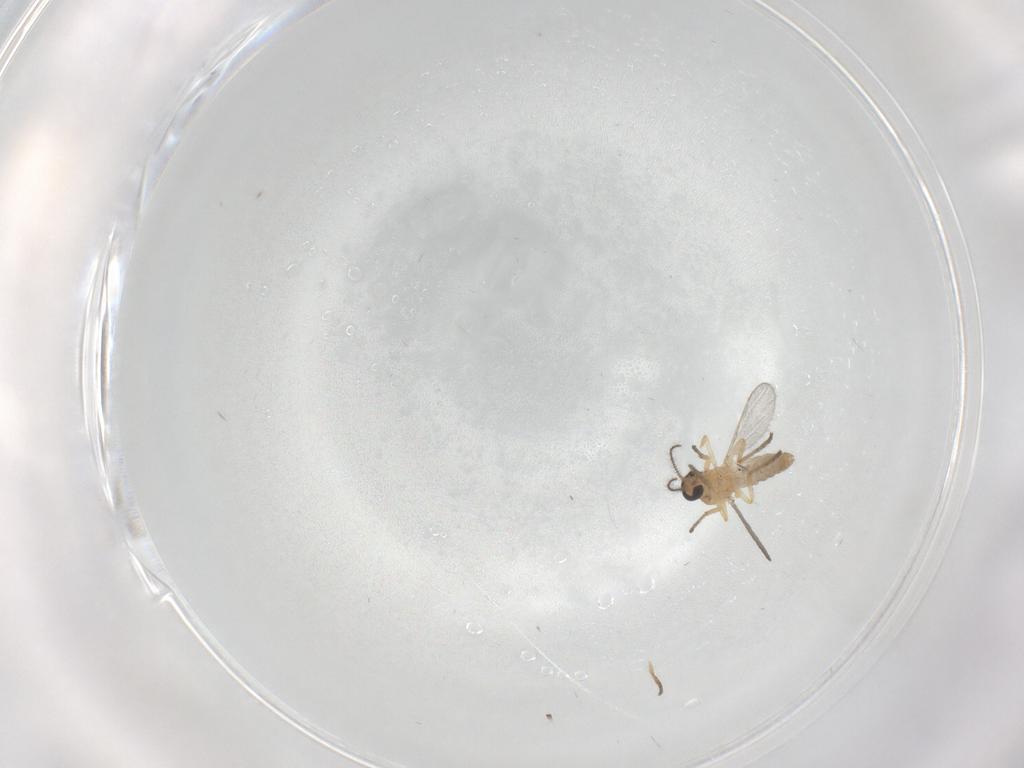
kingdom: Animalia
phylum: Arthropoda
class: Insecta
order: Diptera
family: Ceratopogonidae
